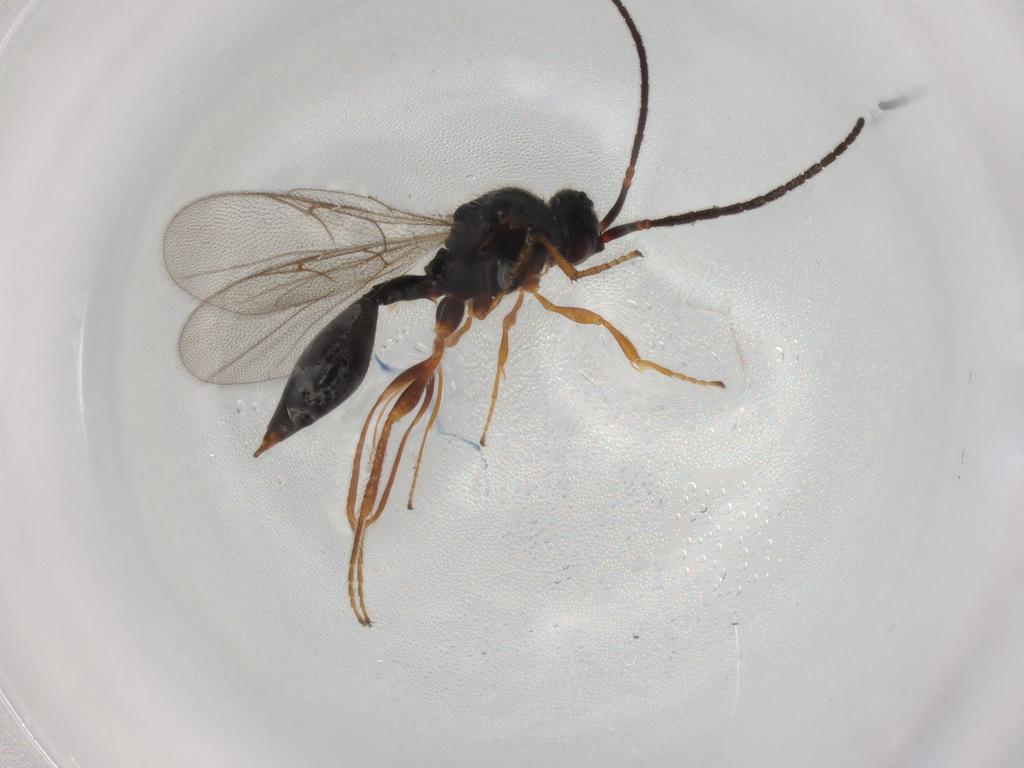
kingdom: Animalia
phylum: Arthropoda
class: Insecta
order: Hymenoptera
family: Diapriidae
